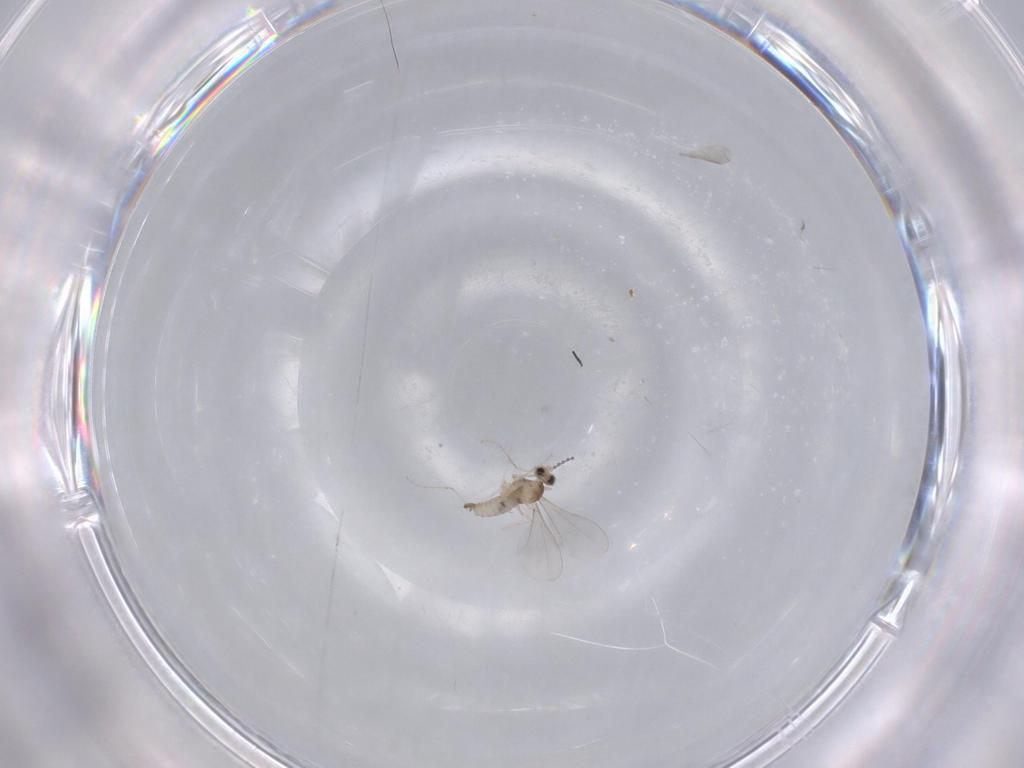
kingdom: Animalia
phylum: Arthropoda
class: Insecta
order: Diptera
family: Cecidomyiidae
